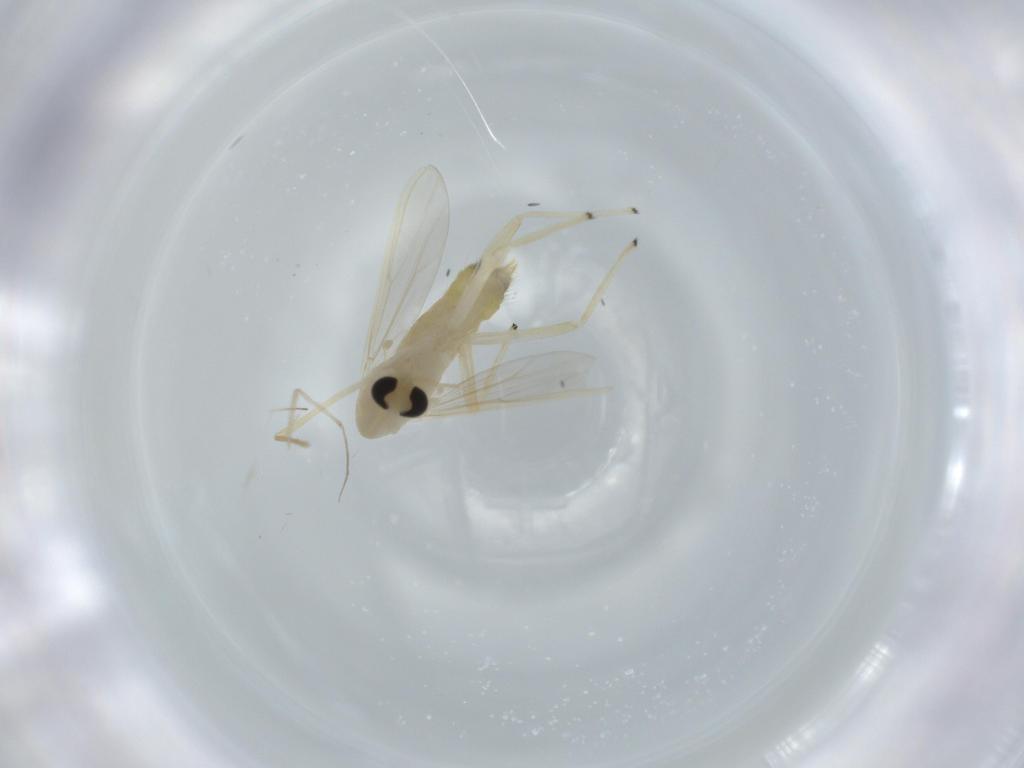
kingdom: Animalia
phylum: Arthropoda
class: Insecta
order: Diptera
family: Chironomidae
